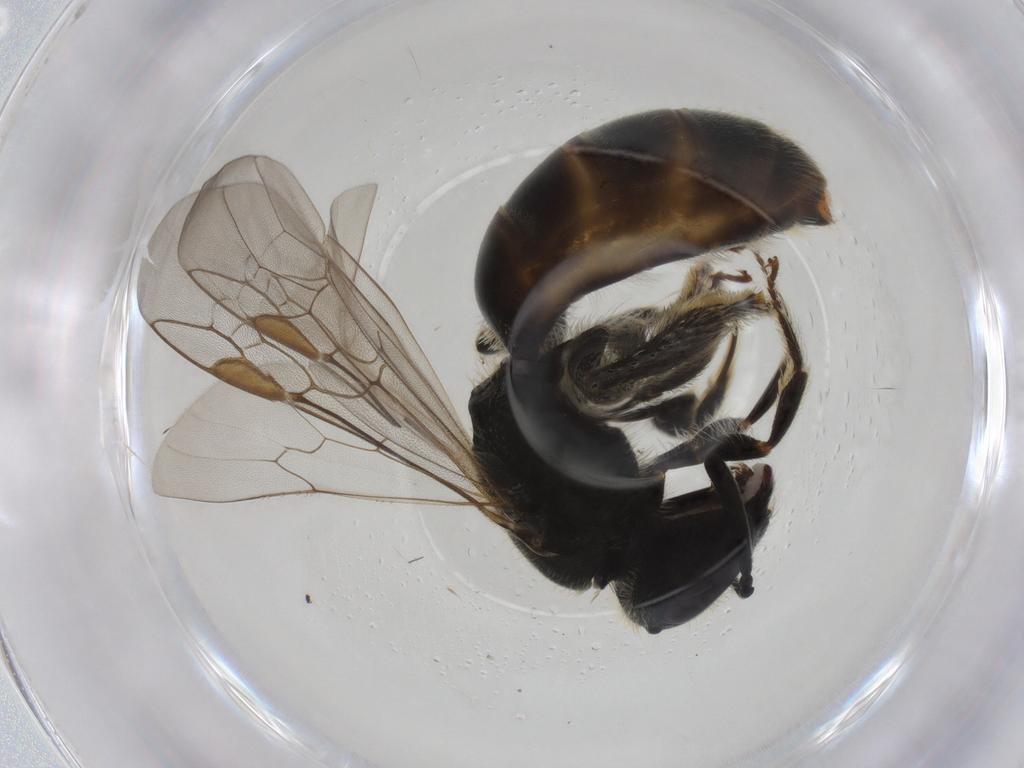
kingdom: Animalia
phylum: Arthropoda
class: Insecta
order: Hymenoptera
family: Halictidae
